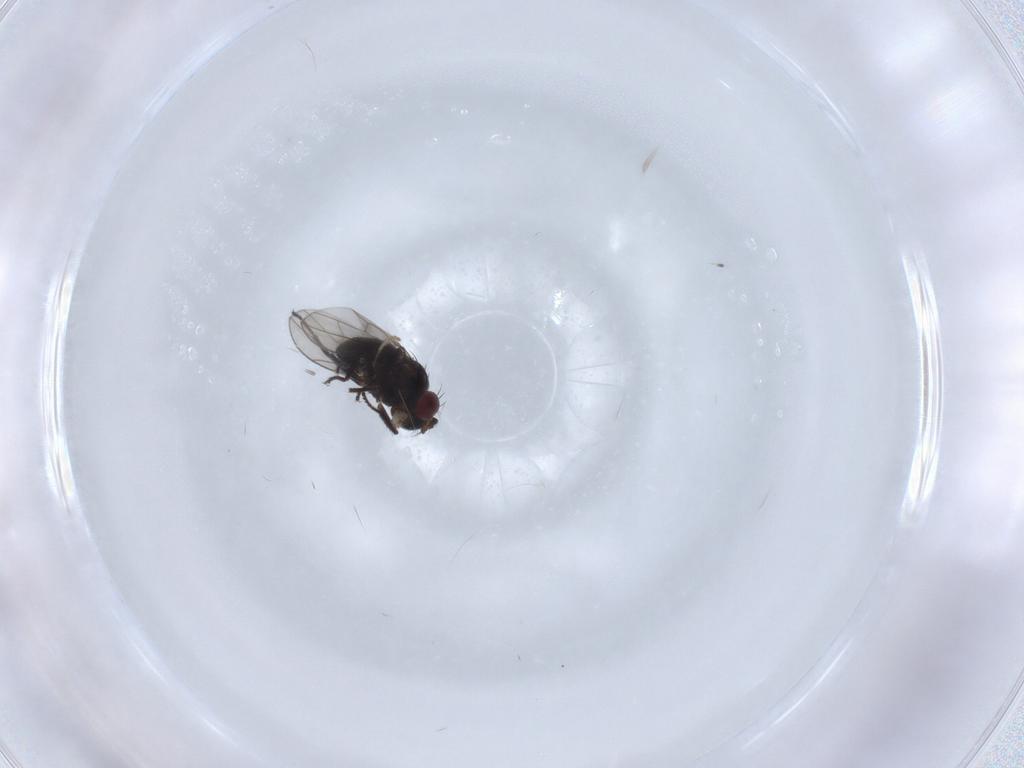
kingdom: Animalia
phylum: Arthropoda
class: Insecta
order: Diptera
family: Ephydridae
